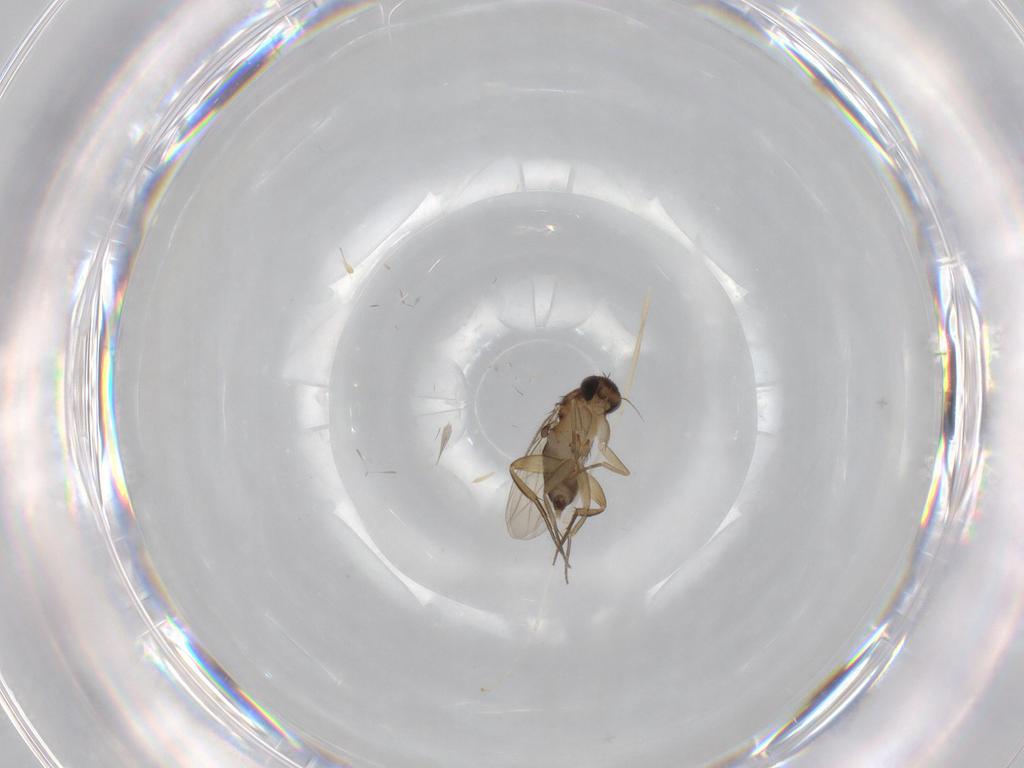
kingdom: Animalia
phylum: Arthropoda
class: Insecta
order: Diptera
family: Phoridae
